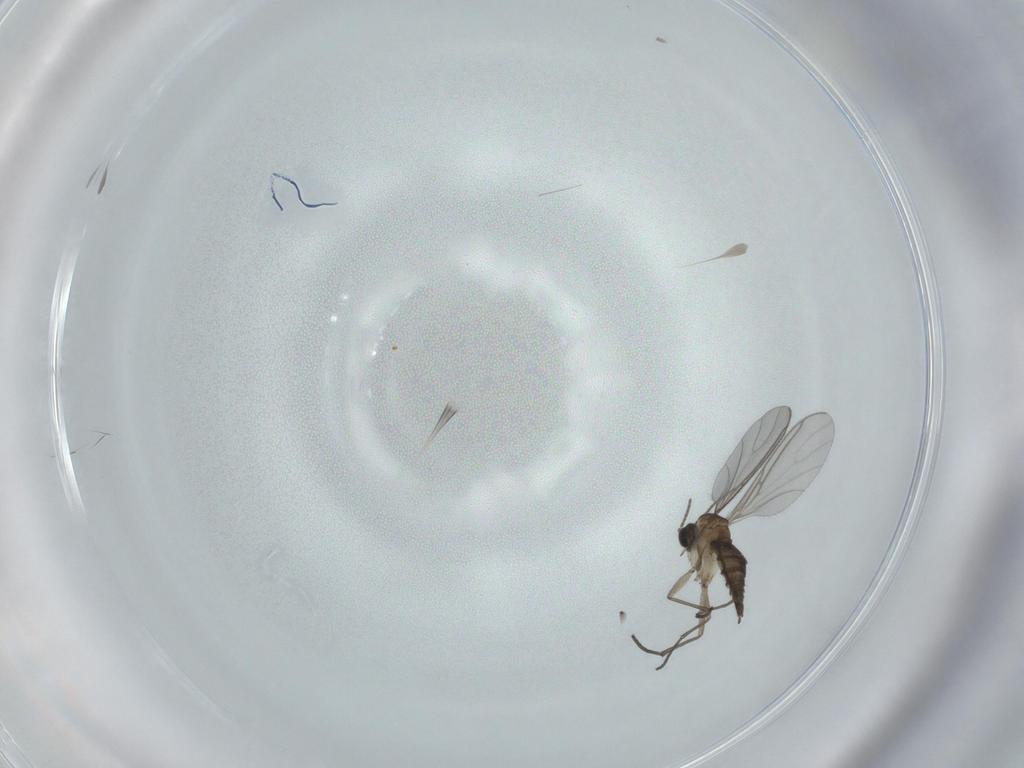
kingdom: Animalia
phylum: Arthropoda
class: Insecta
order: Diptera
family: Sciaridae
